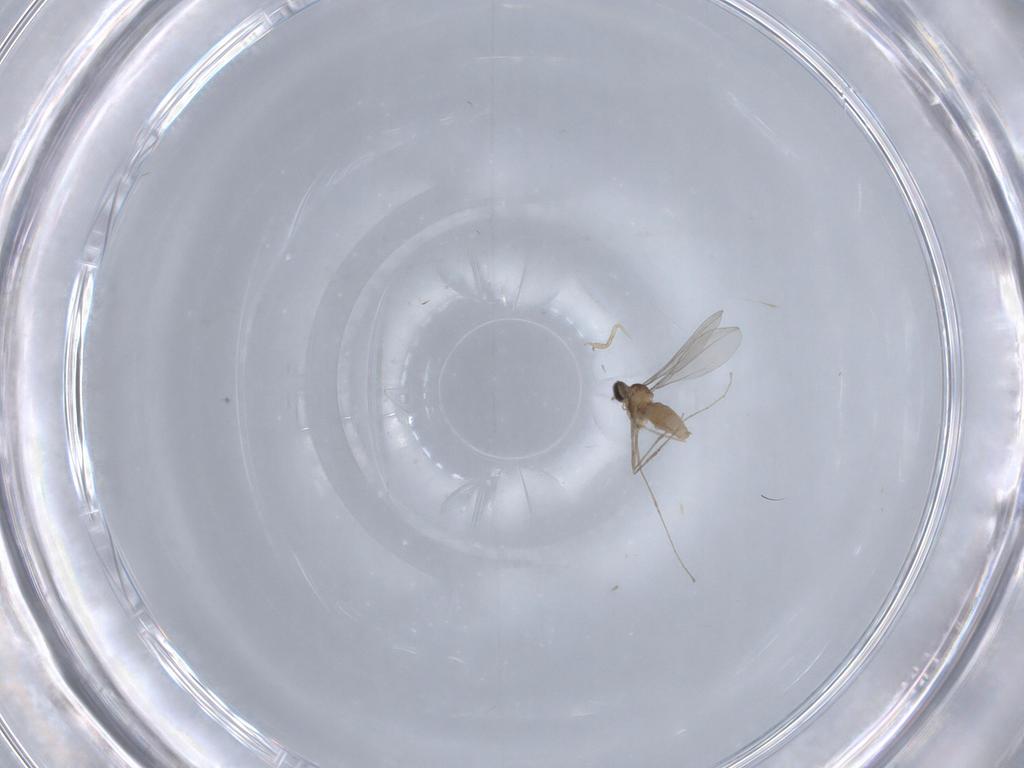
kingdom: Animalia
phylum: Arthropoda
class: Insecta
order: Diptera
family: Cecidomyiidae
